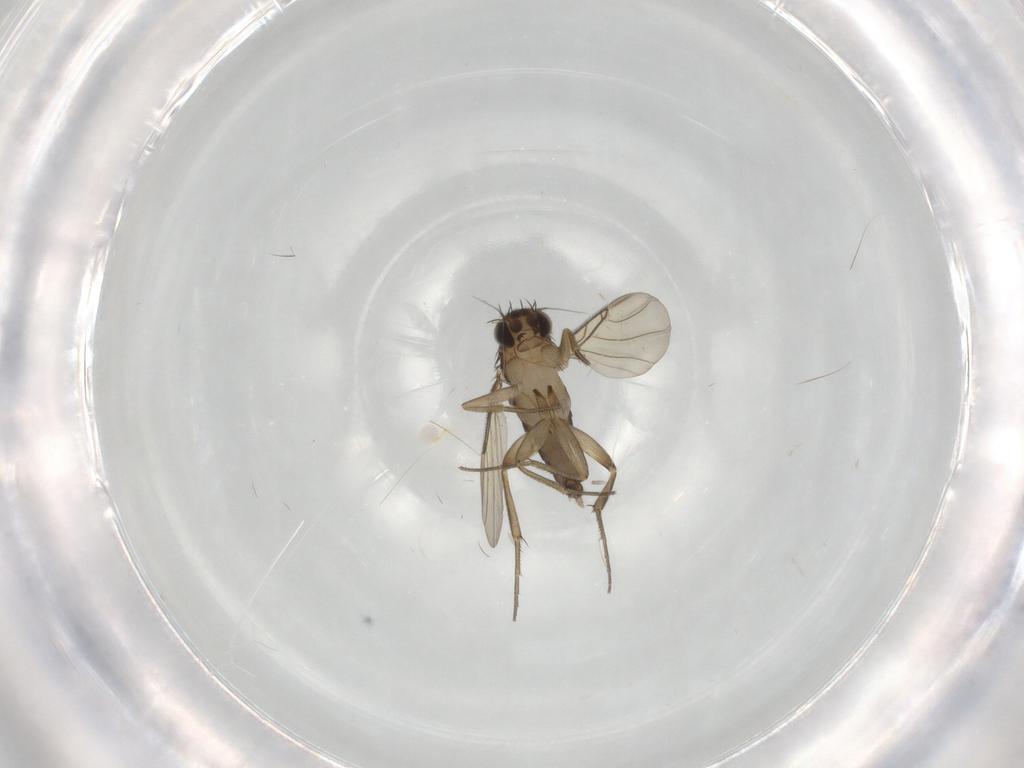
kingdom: Animalia
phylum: Arthropoda
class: Insecta
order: Diptera
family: Phoridae
